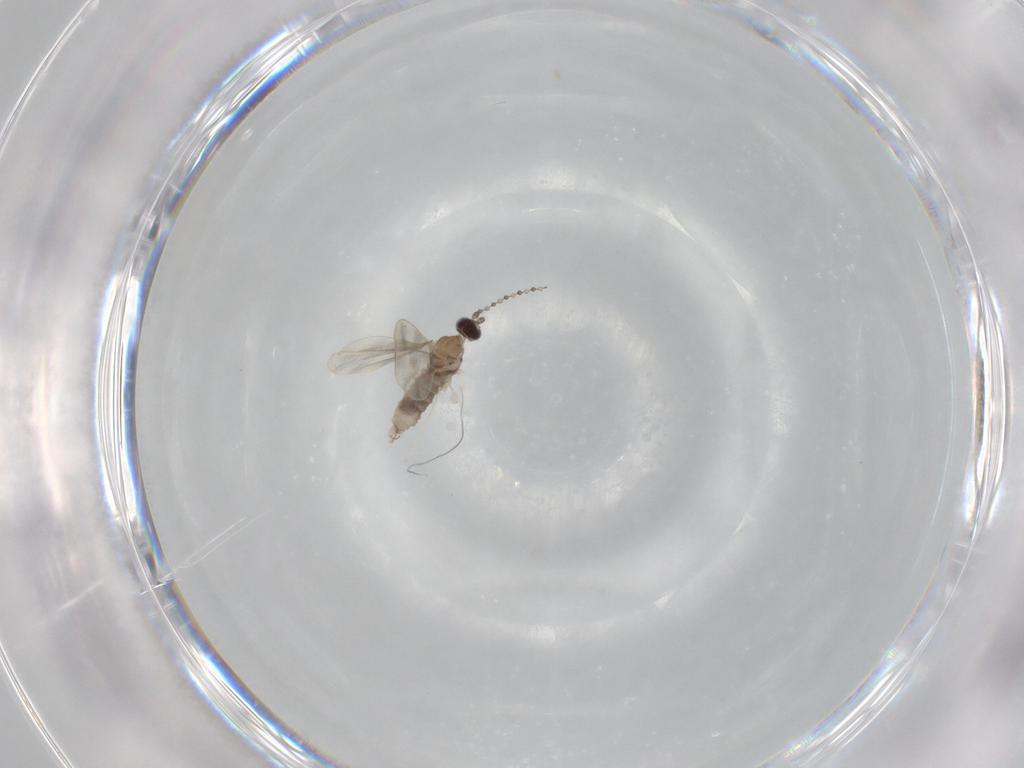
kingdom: Animalia
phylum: Arthropoda
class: Insecta
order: Diptera
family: Cecidomyiidae
